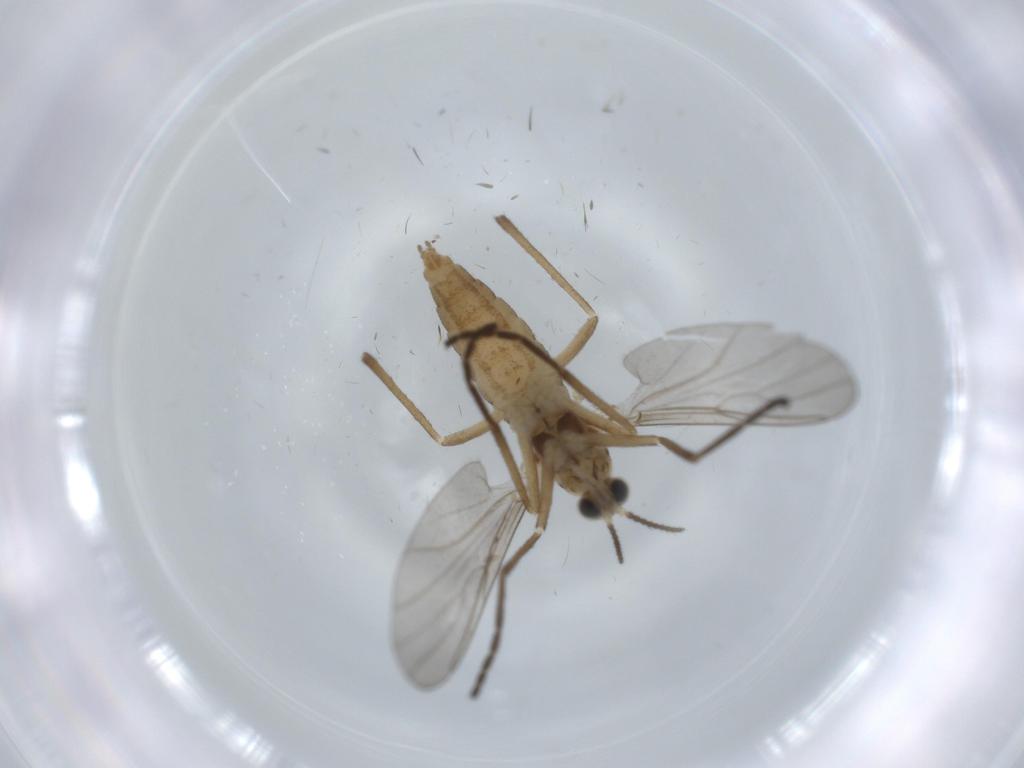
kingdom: Animalia
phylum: Arthropoda
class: Insecta
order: Diptera
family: Cecidomyiidae
